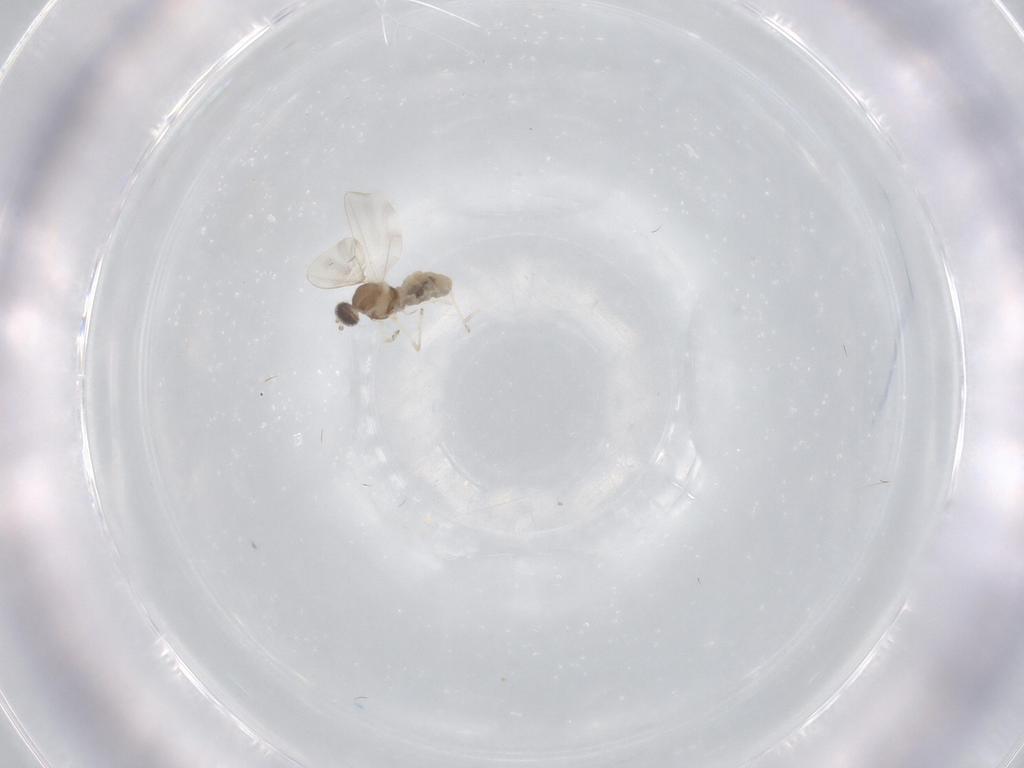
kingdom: Animalia
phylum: Arthropoda
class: Insecta
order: Diptera
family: Cecidomyiidae
